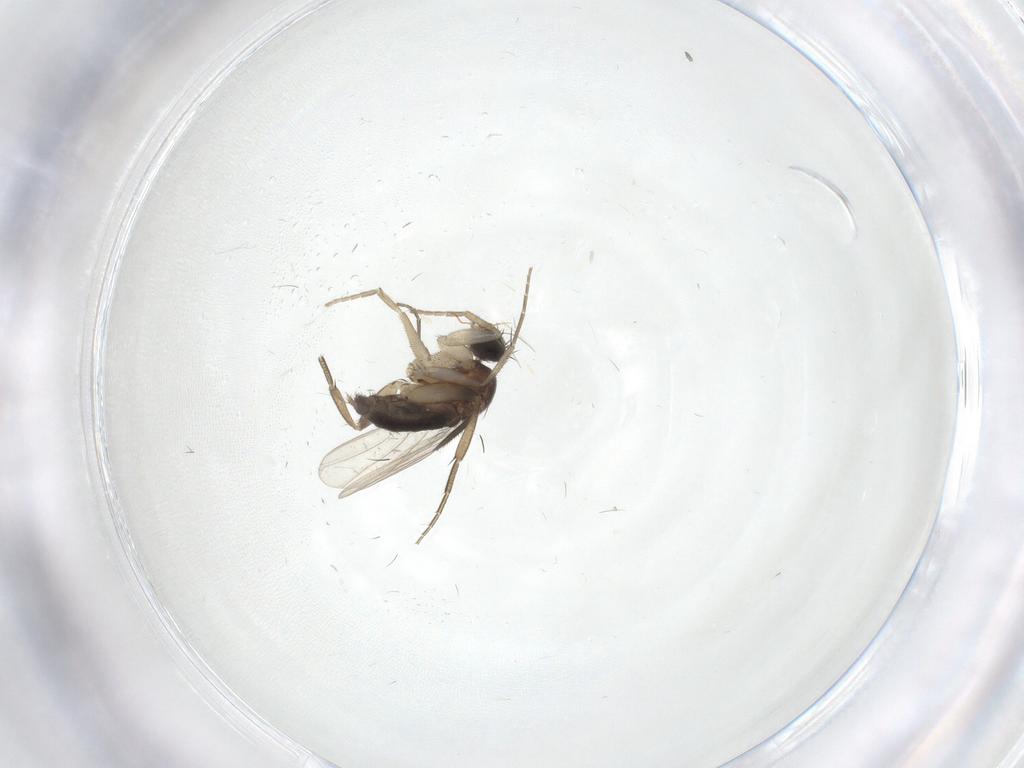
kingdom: Animalia
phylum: Arthropoda
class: Insecta
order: Diptera
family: Phoridae
